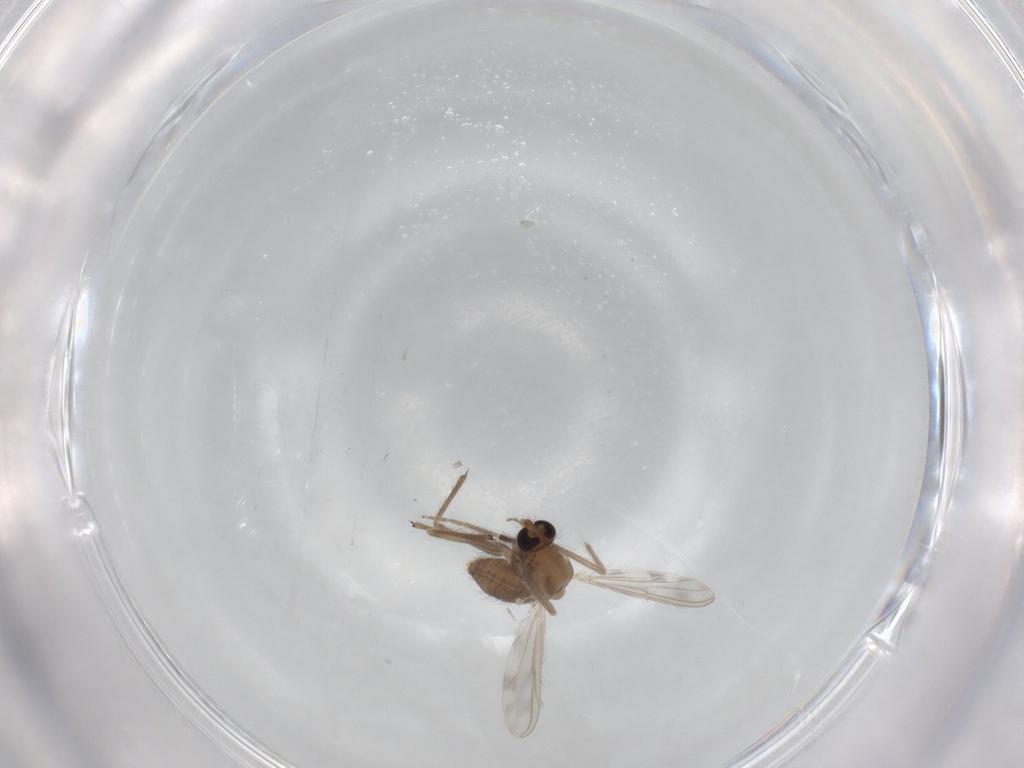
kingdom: Animalia
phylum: Arthropoda
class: Insecta
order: Diptera
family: Chironomidae
